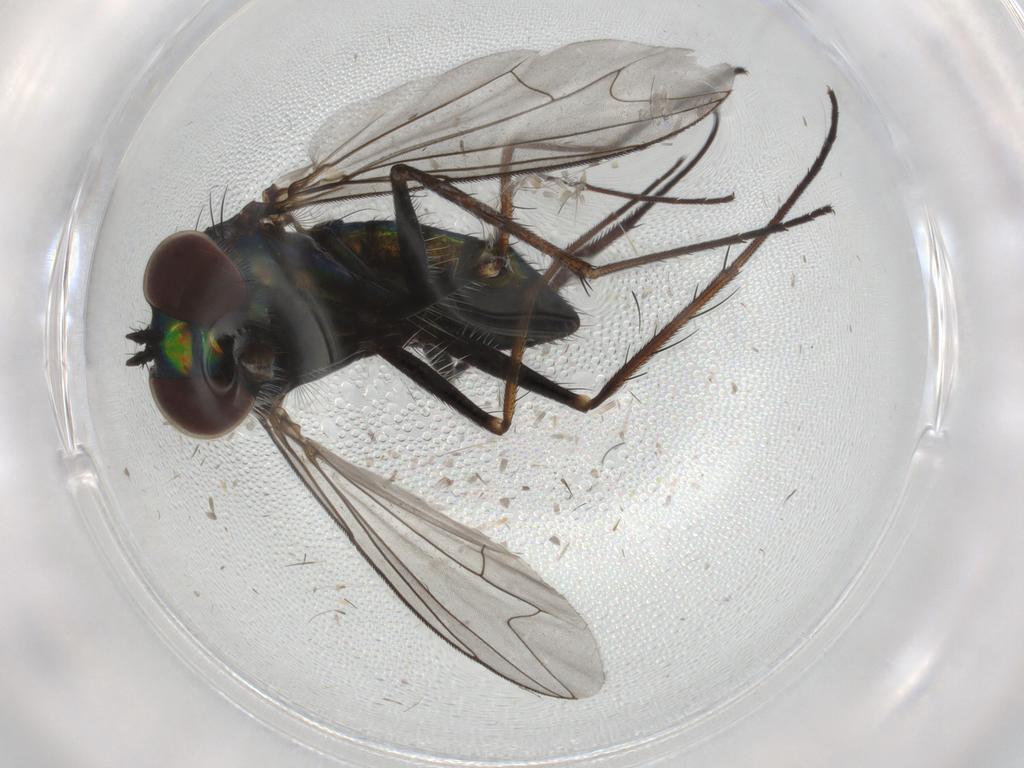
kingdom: Animalia
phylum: Arthropoda
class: Insecta
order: Diptera
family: Dolichopodidae
